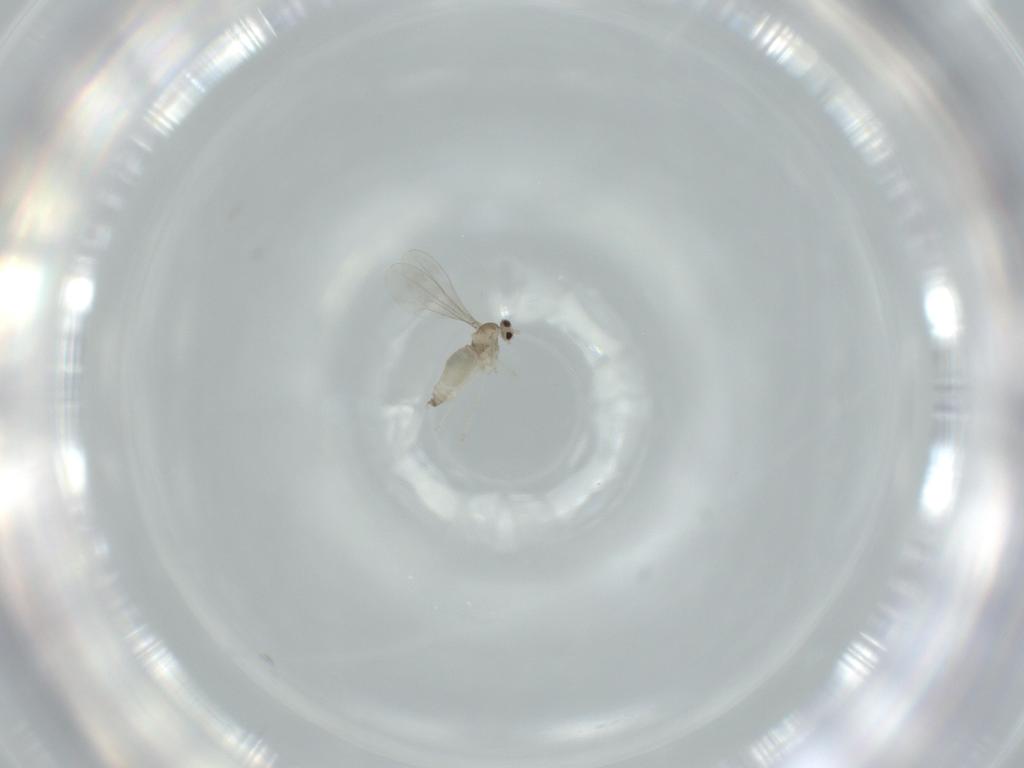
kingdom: Animalia
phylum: Arthropoda
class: Insecta
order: Diptera
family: Cecidomyiidae
